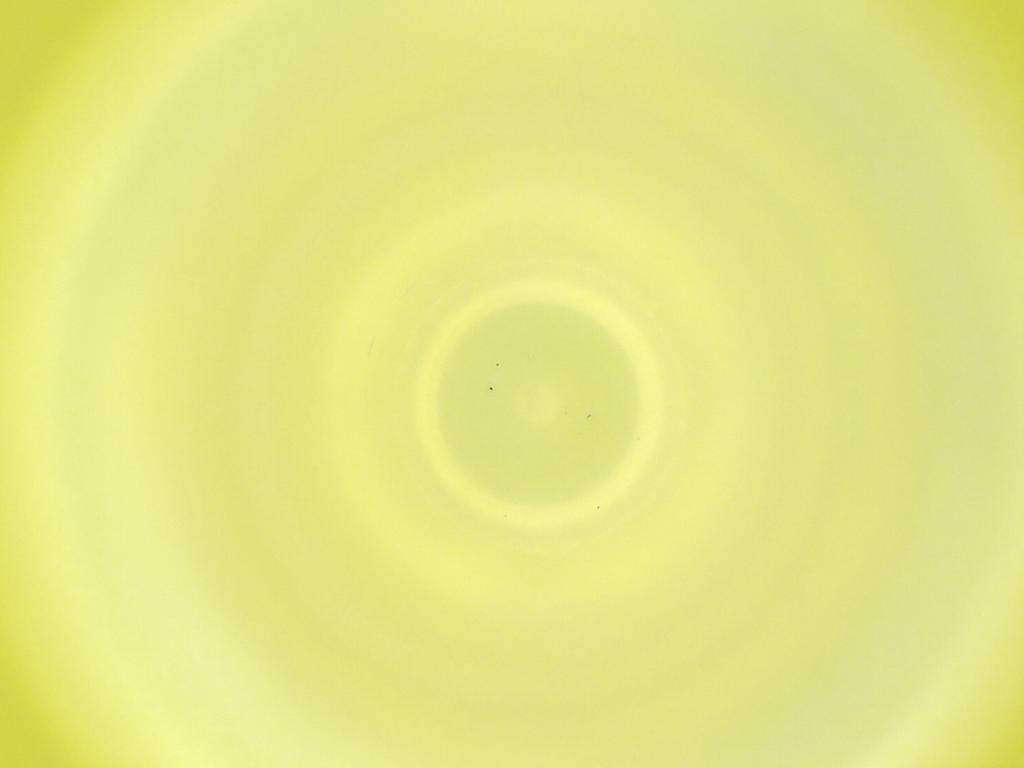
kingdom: Animalia
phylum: Arthropoda
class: Insecta
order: Diptera
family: Cecidomyiidae
